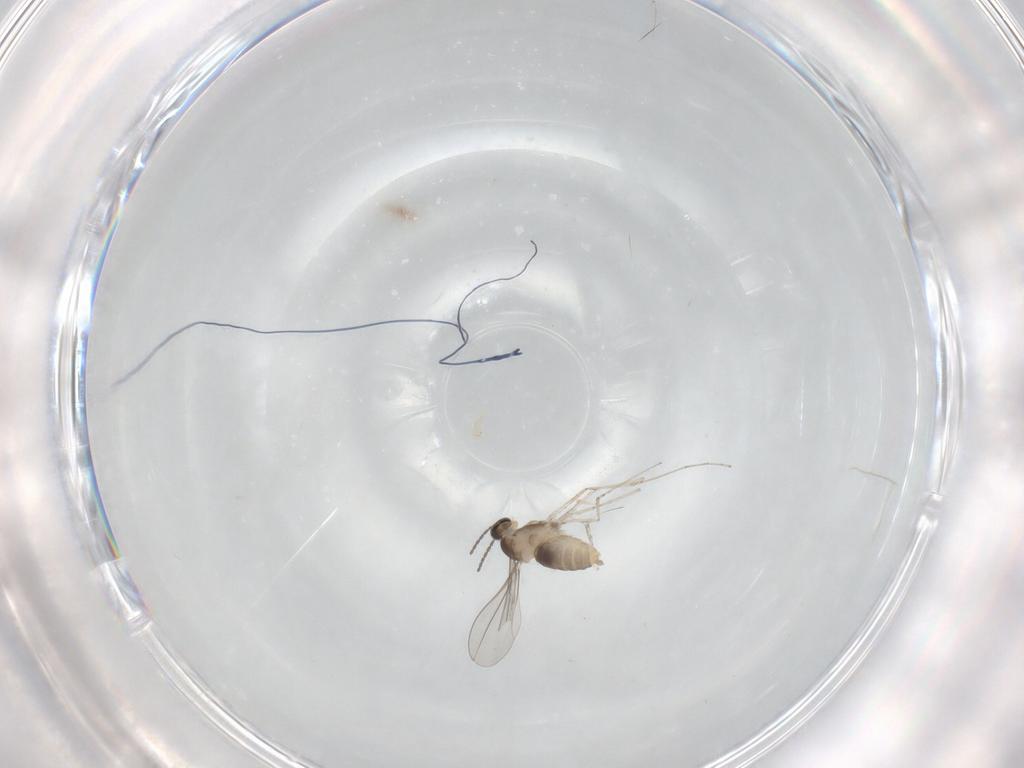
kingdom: Animalia
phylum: Arthropoda
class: Insecta
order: Diptera
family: Cecidomyiidae
